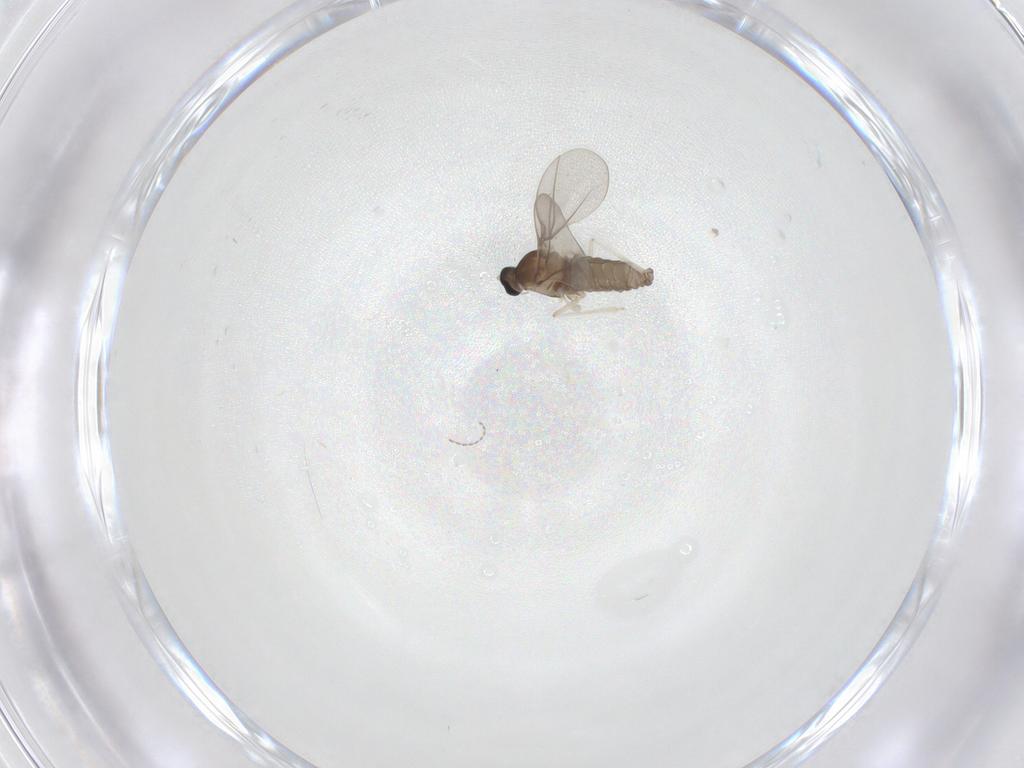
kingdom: Animalia
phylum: Arthropoda
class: Insecta
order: Diptera
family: Cecidomyiidae
